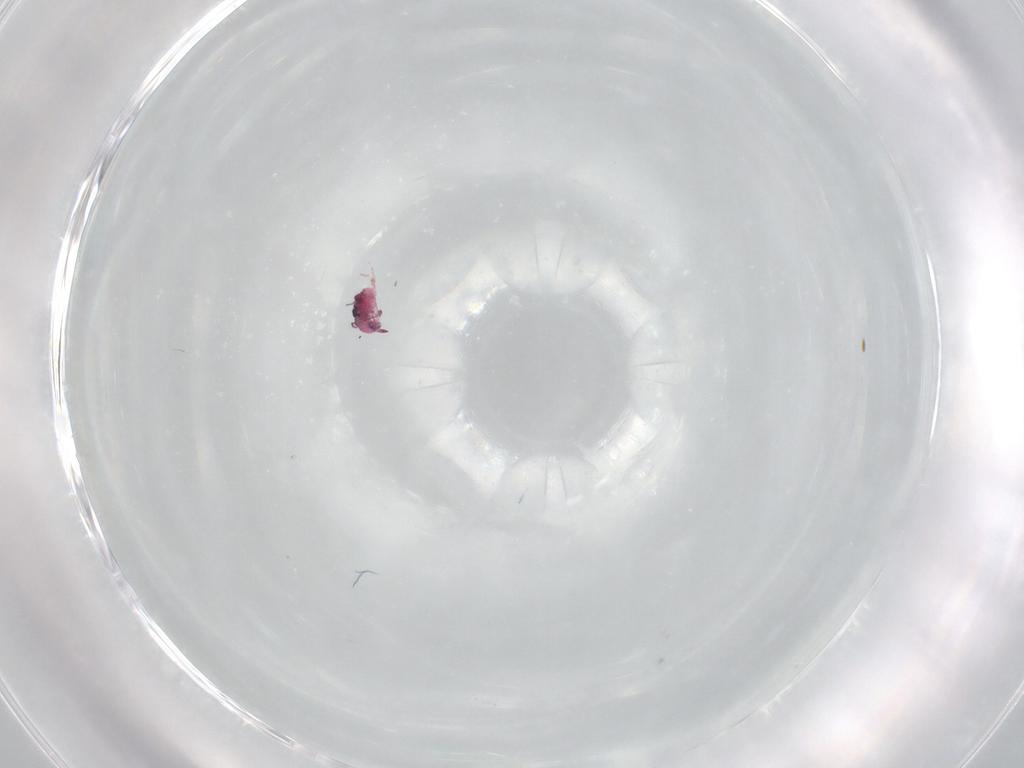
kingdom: Animalia
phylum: Arthropoda
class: Collembola
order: Symphypleona
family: Sminthurididae
